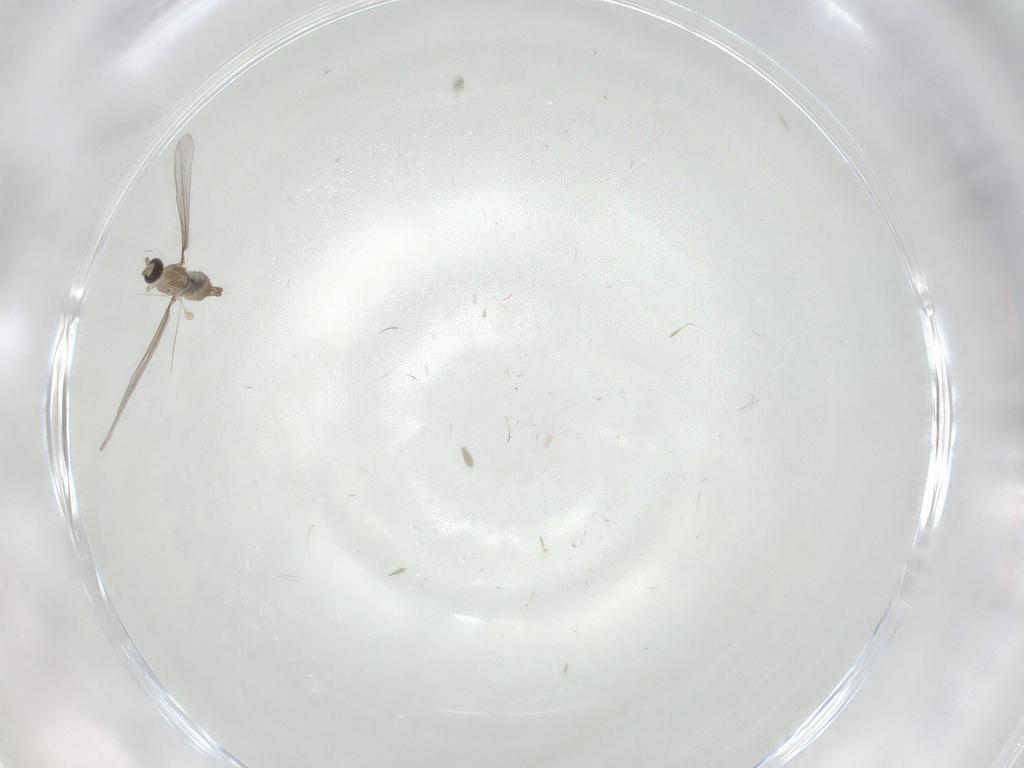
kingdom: Animalia
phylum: Arthropoda
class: Insecta
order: Diptera
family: Cecidomyiidae
